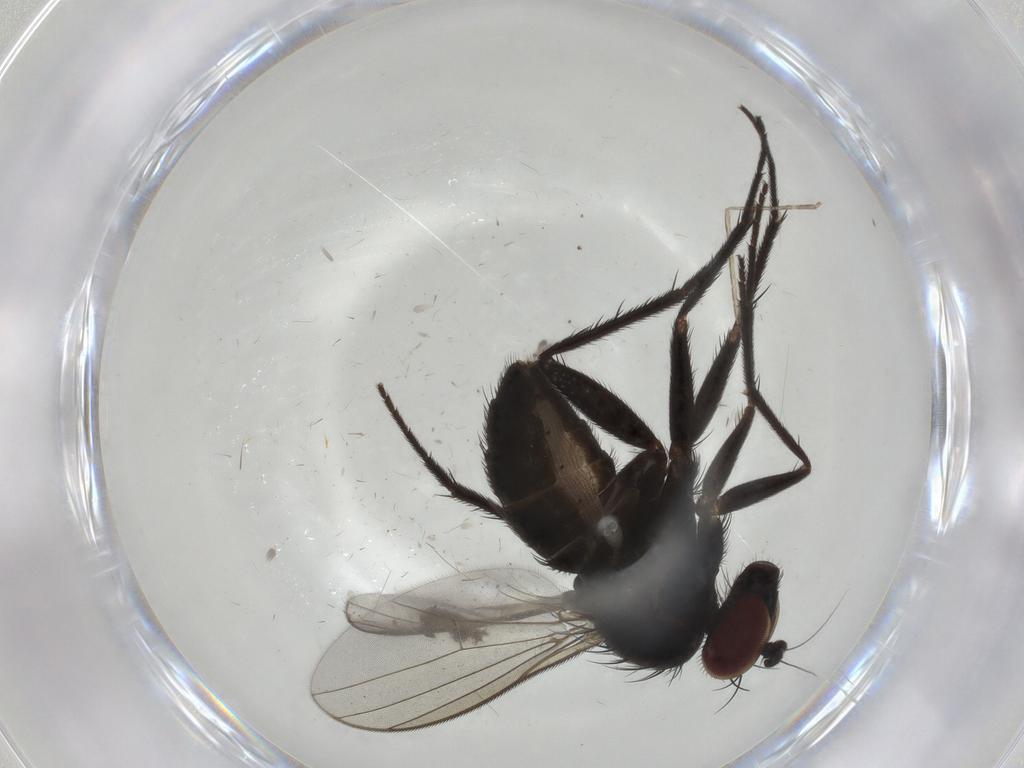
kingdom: Animalia
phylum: Arthropoda
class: Insecta
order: Diptera
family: Dolichopodidae
